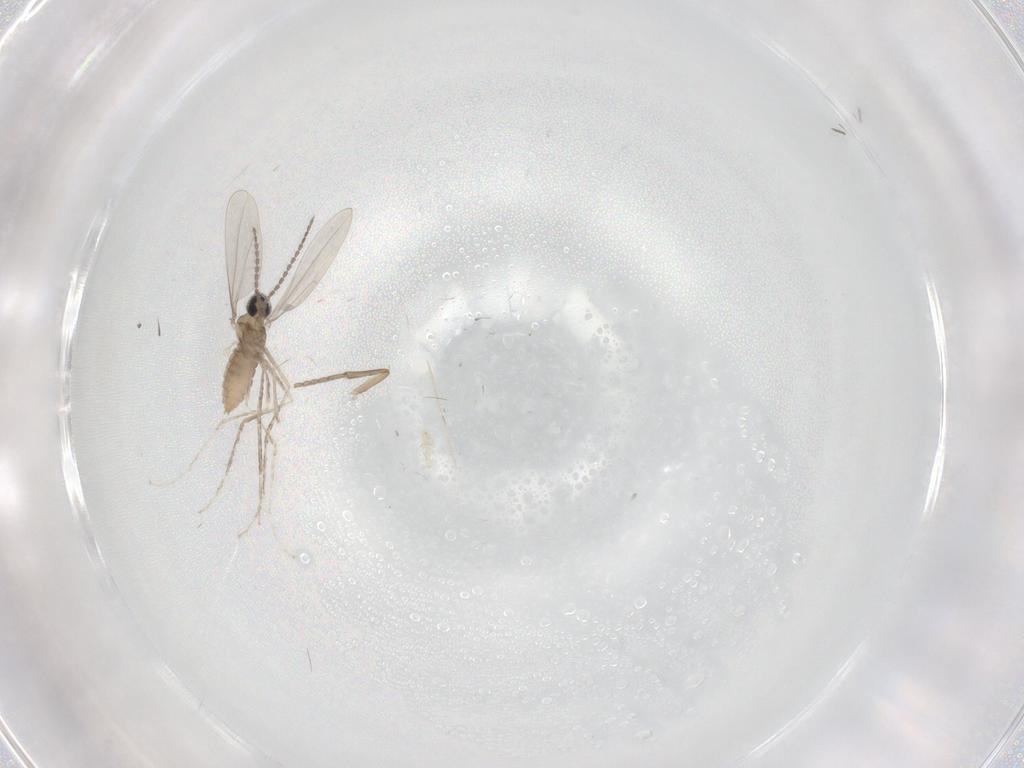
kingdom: Animalia
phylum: Arthropoda
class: Insecta
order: Diptera
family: Psychodidae
